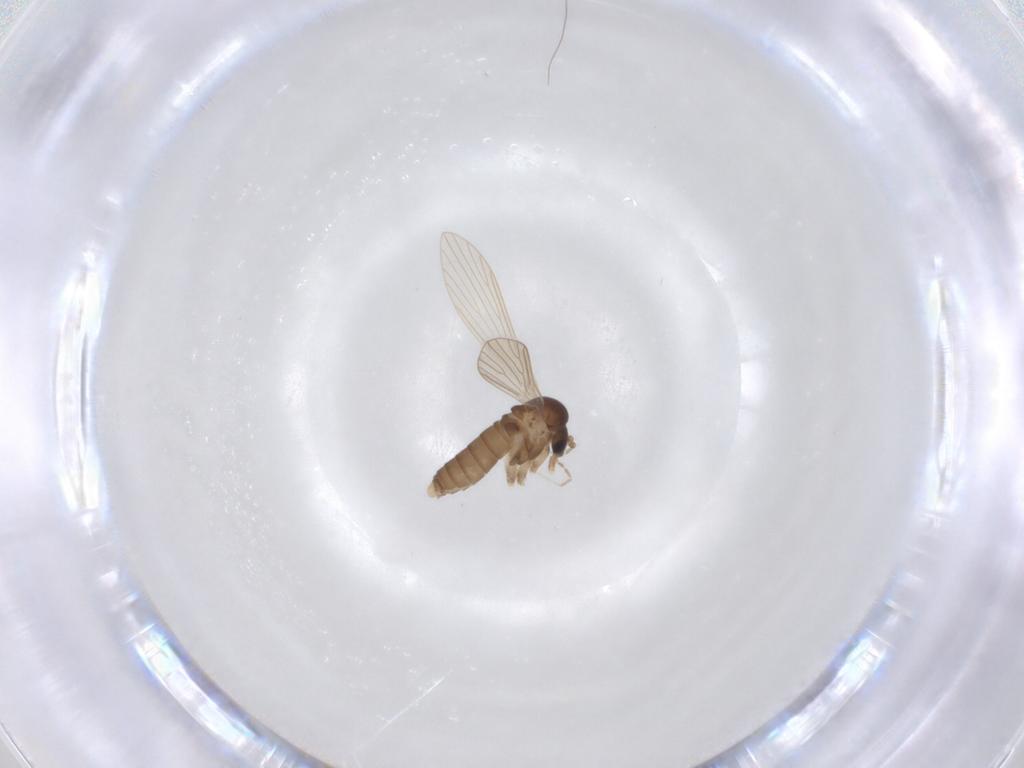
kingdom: Animalia
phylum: Arthropoda
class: Insecta
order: Diptera
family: Psychodidae
